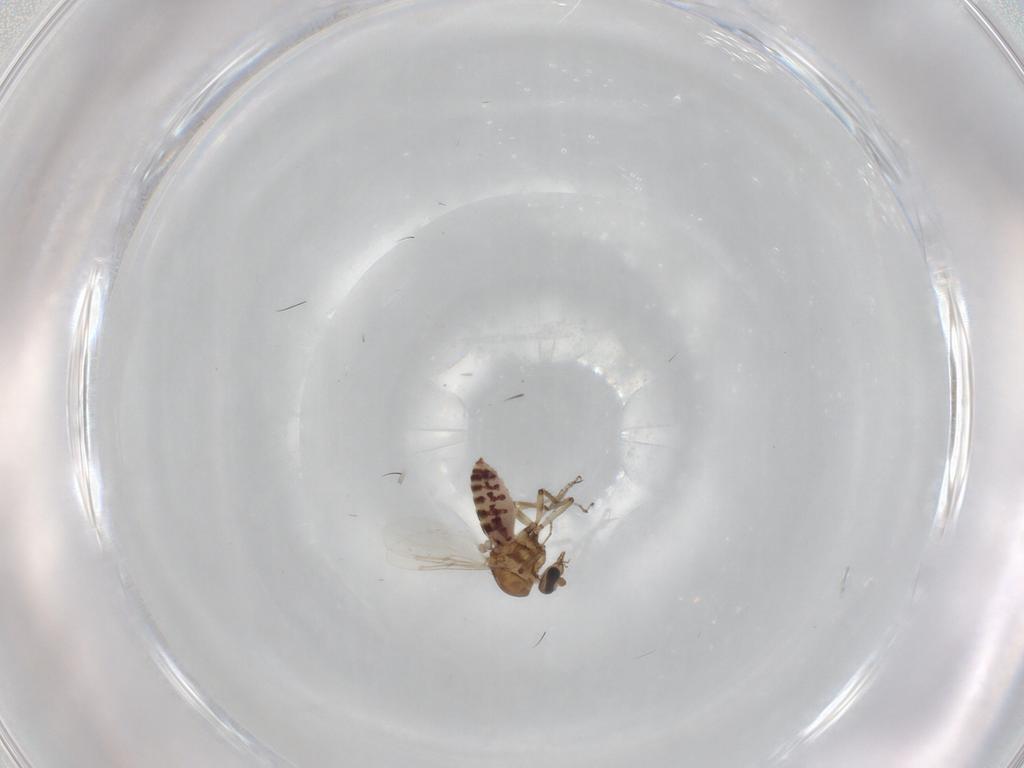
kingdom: Animalia
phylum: Arthropoda
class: Insecta
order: Diptera
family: Ceratopogonidae
